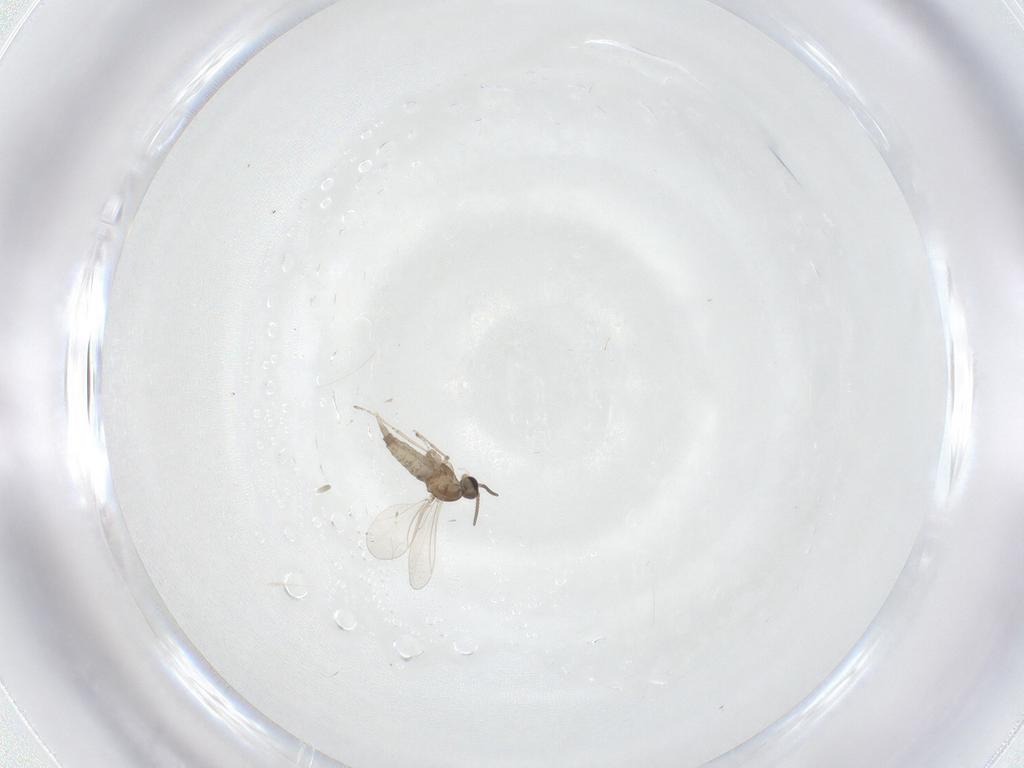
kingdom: Animalia
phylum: Arthropoda
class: Insecta
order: Diptera
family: Cecidomyiidae
